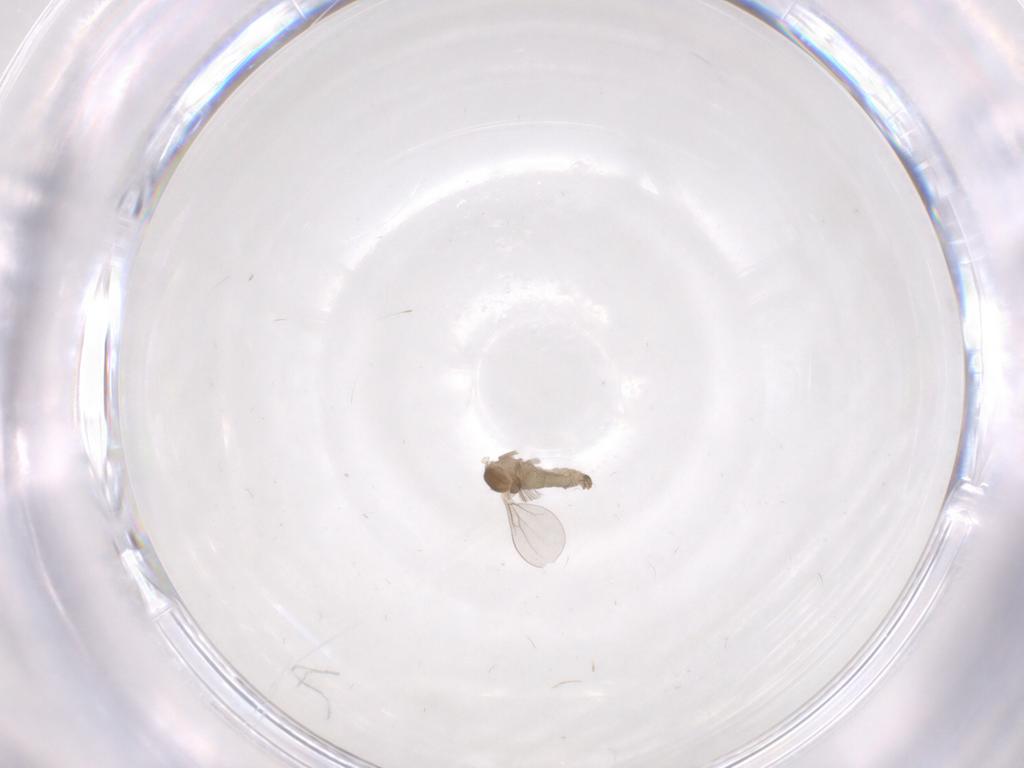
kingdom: Animalia
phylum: Arthropoda
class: Insecta
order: Diptera
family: Cecidomyiidae
